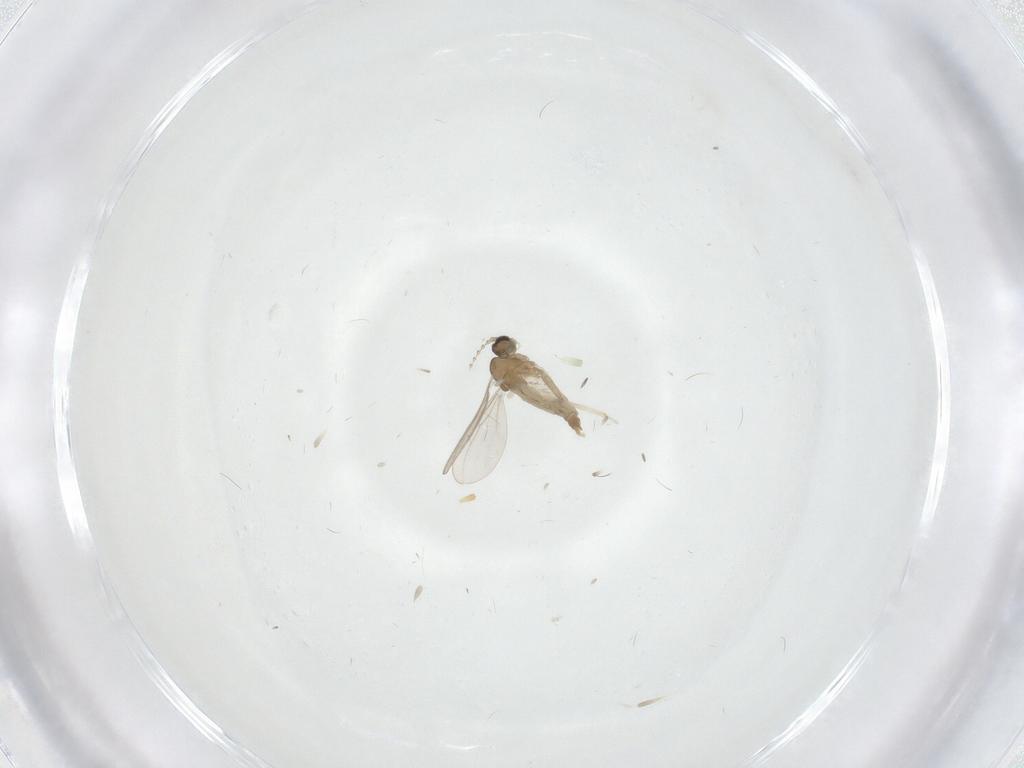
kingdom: Animalia
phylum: Arthropoda
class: Insecta
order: Diptera
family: Cecidomyiidae
